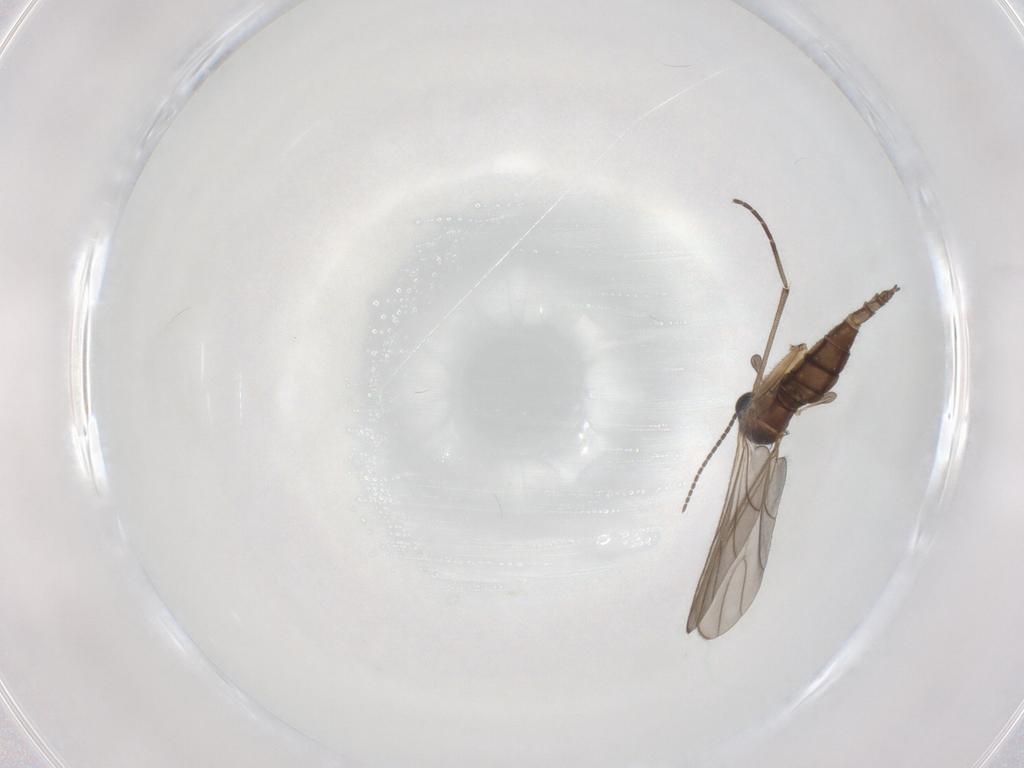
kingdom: Animalia
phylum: Arthropoda
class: Insecta
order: Diptera
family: Sciaridae
